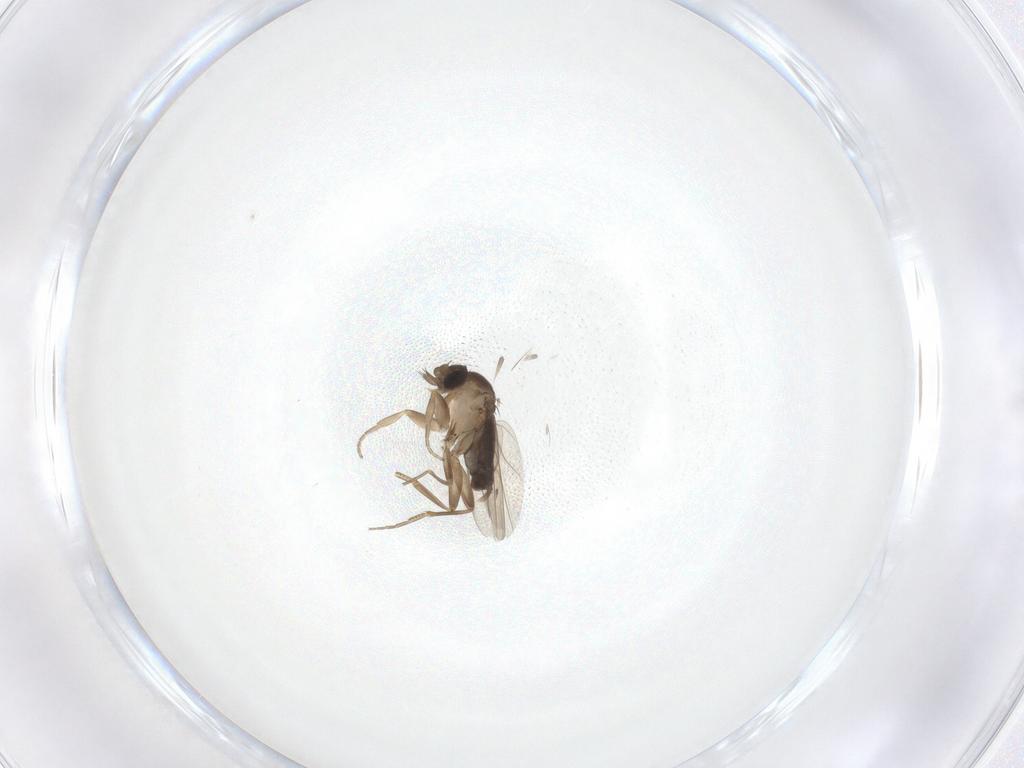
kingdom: Animalia
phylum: Arthropoda
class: Insecta
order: Diptera
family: Phoridae
